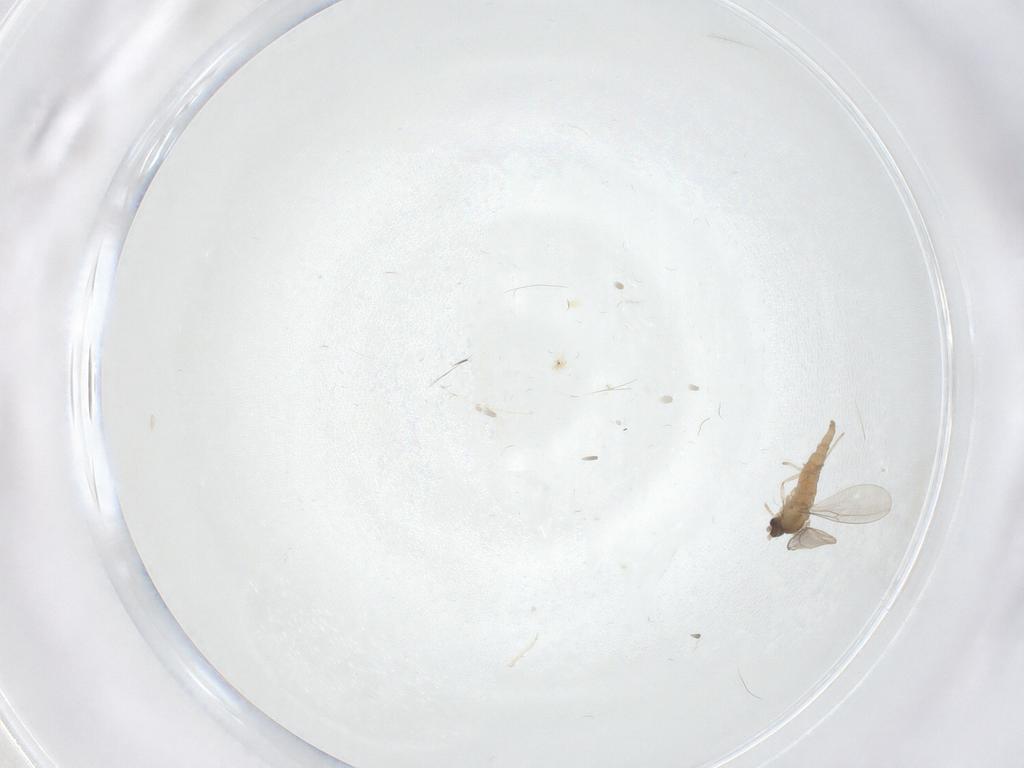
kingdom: Animalia
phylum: Arthropoda
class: Insecta
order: Diptera
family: Cecidomyiidae
